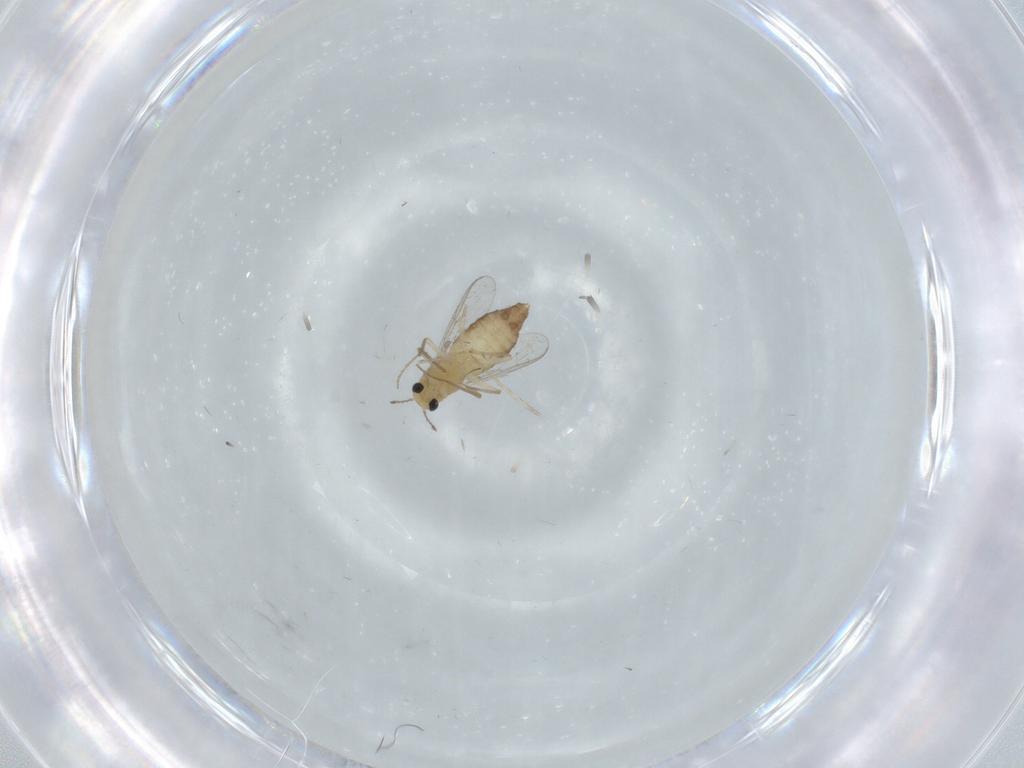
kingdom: Animalia
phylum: Arthropoda
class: Insecta
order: Diptera
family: Chironomidae
